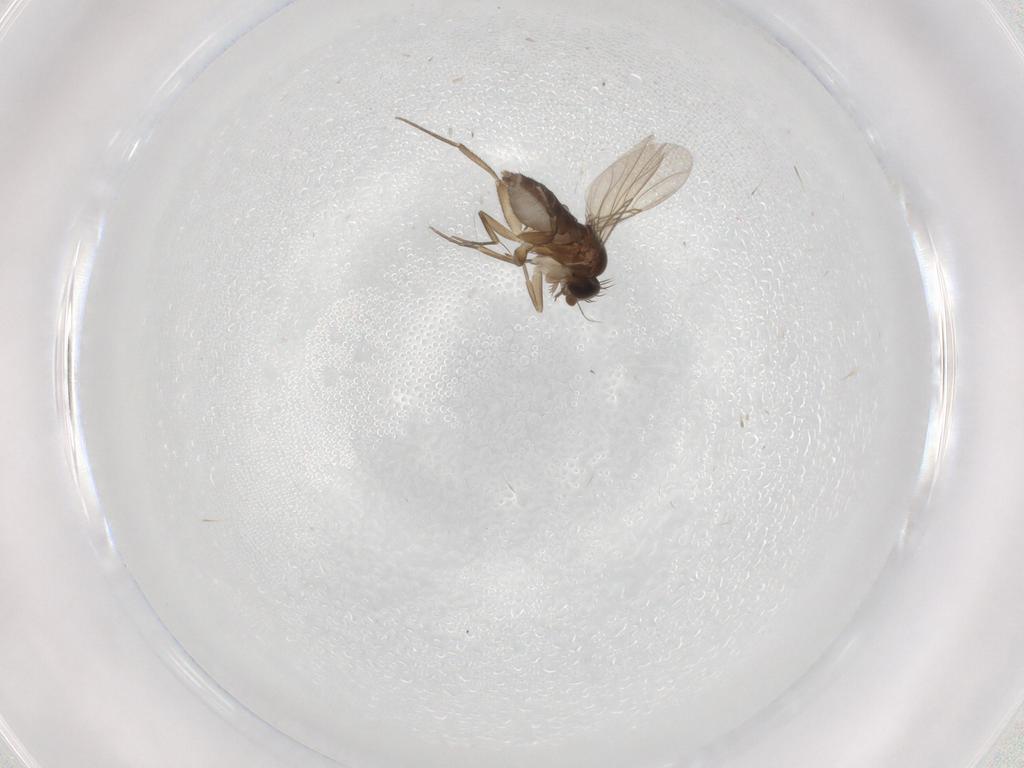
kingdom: Animalia
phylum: Arthropoda
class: Insecta
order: Diptera
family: Phoridae
